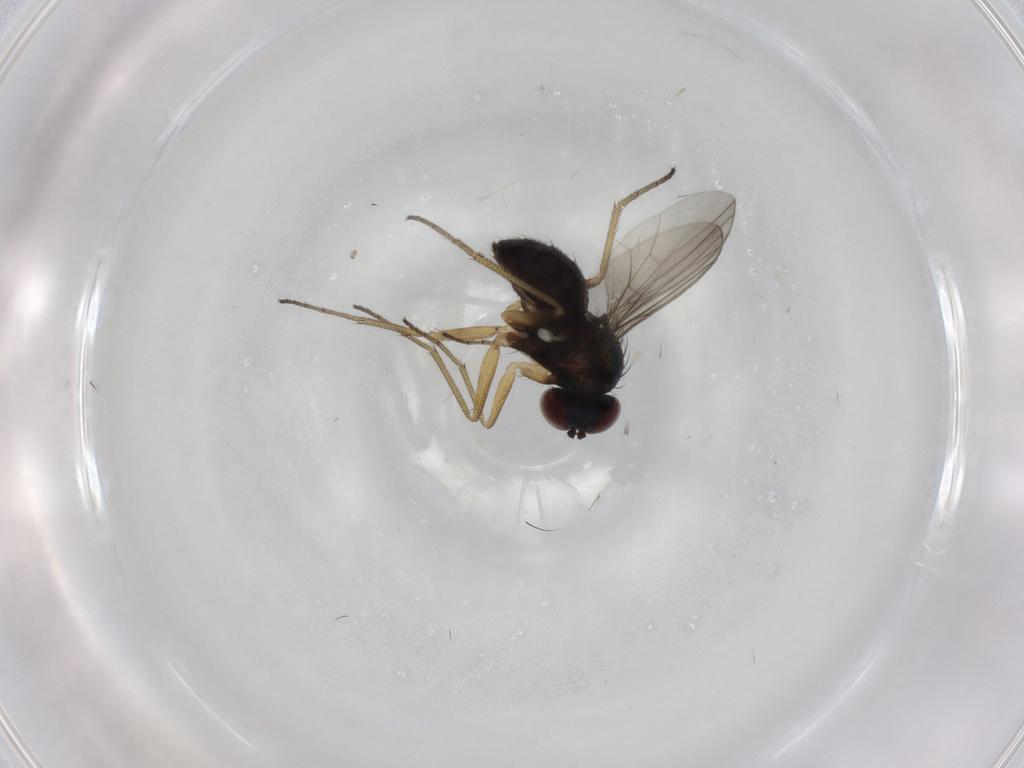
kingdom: Animalia
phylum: Arthropoda
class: Insecta
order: Diptera
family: Dolichopodidae
